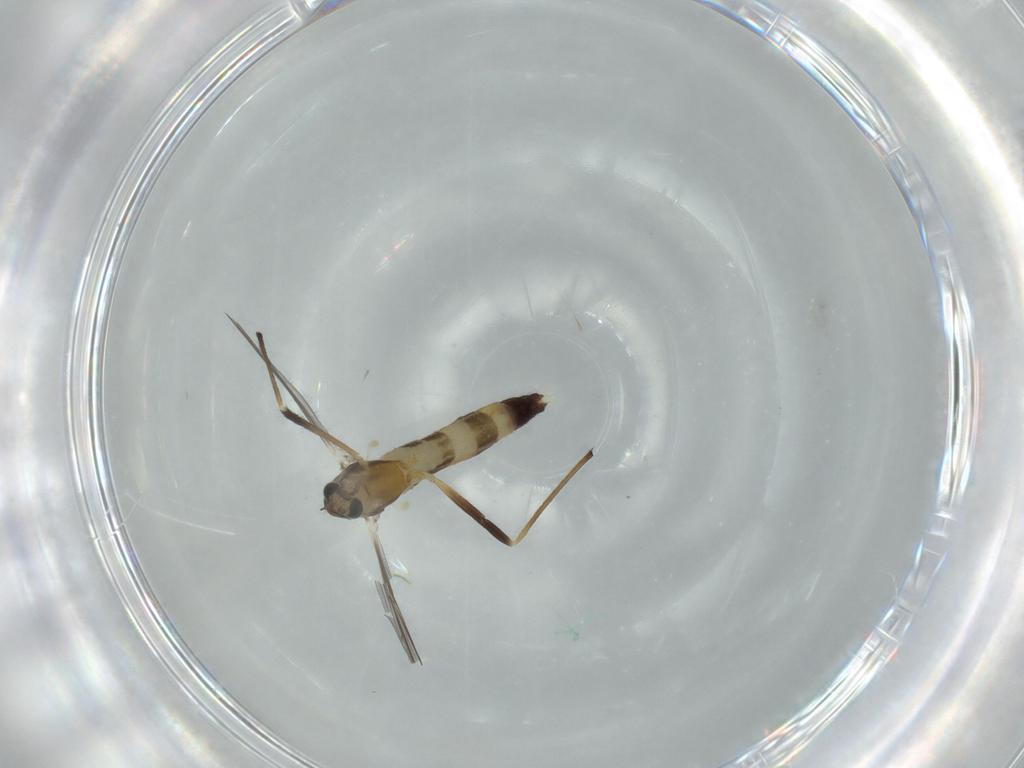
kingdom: Animalia
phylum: Arthropoda
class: Insecta
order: Diptera
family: Chironomidae
